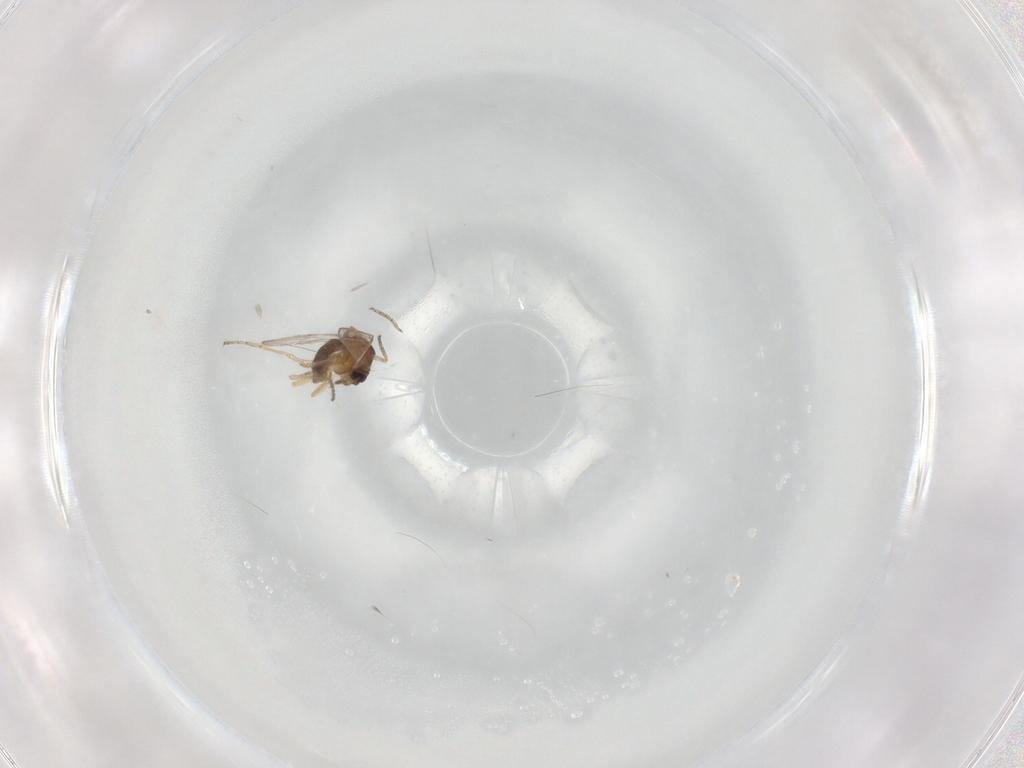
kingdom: Animalia
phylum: Arthropoda
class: Insecta
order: Diptera
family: Ceratopogonidae
